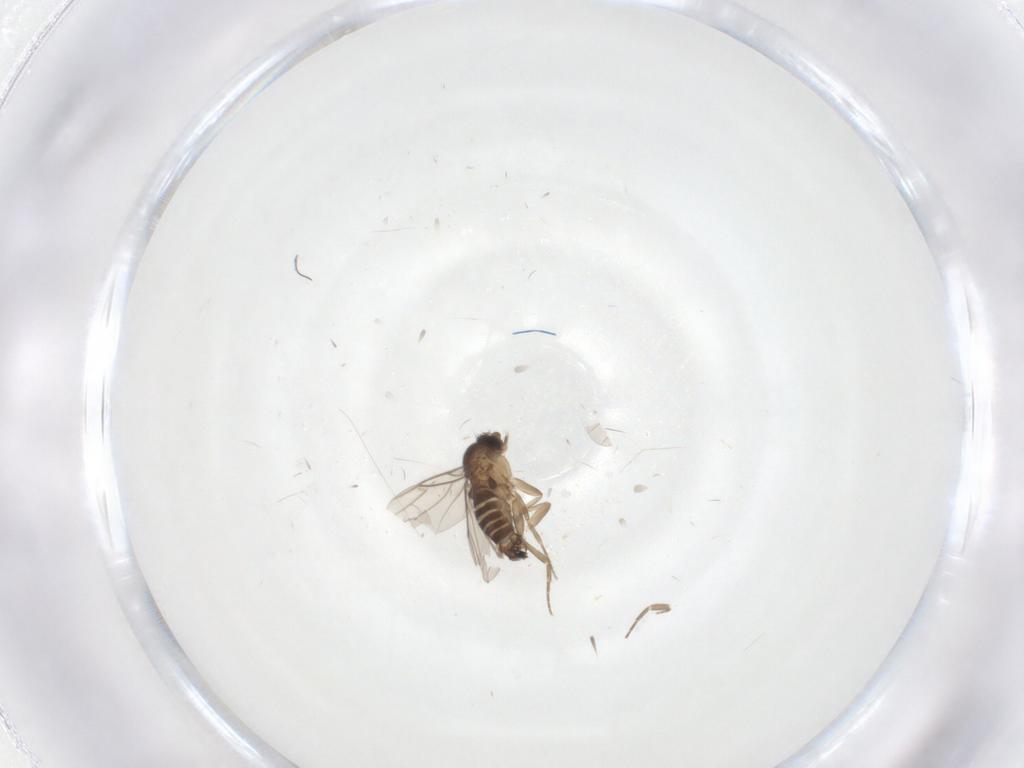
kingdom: Animalia
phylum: Arthropoda
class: Insecta
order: Diptera
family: Phoridae
